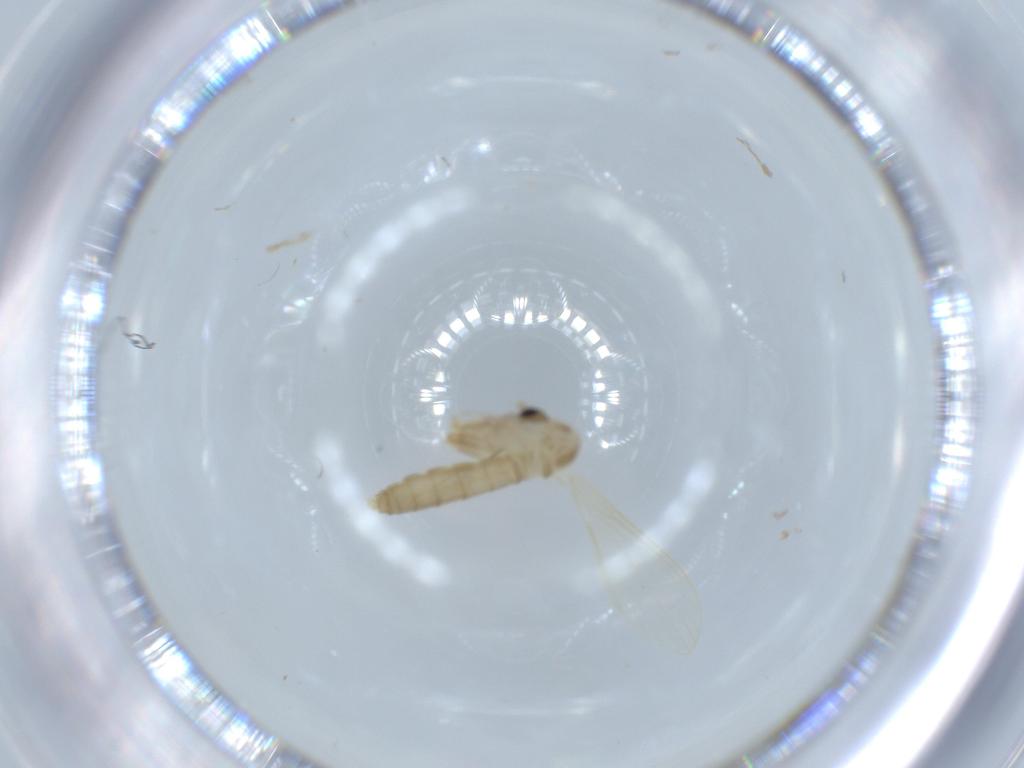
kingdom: Animalia
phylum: Arthropoda
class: Insecta
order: Diptera
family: Psychodidae
